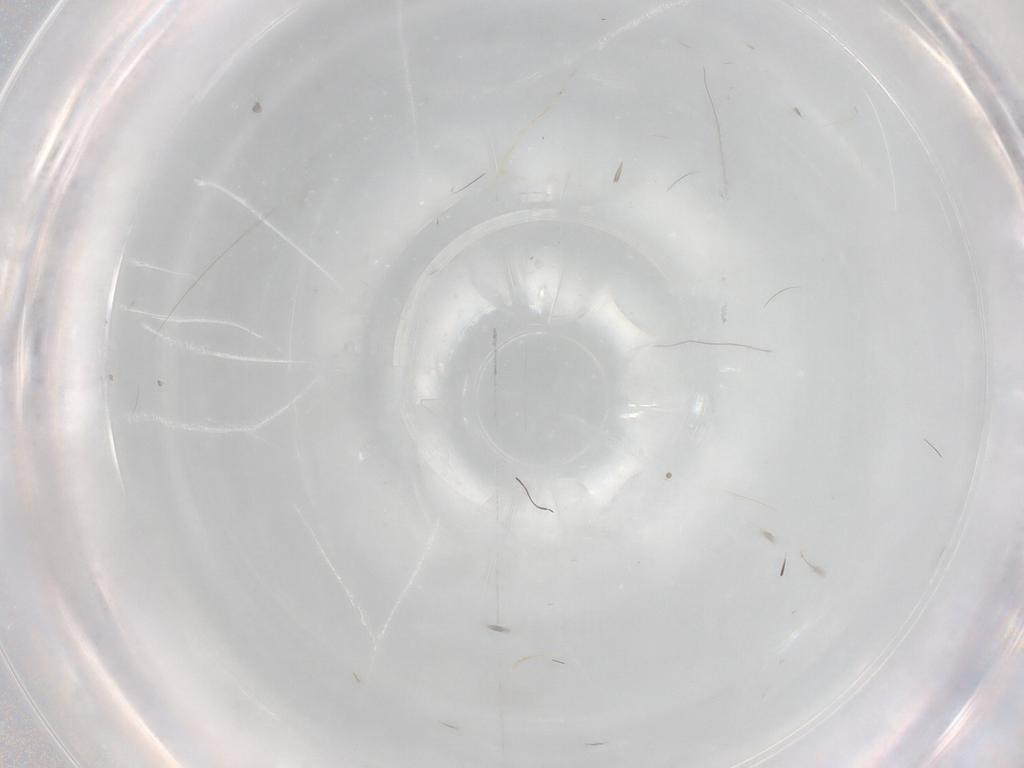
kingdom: Animalia
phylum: Arthropoda
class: Insecta
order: Diptera
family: Ceratopogonidae
